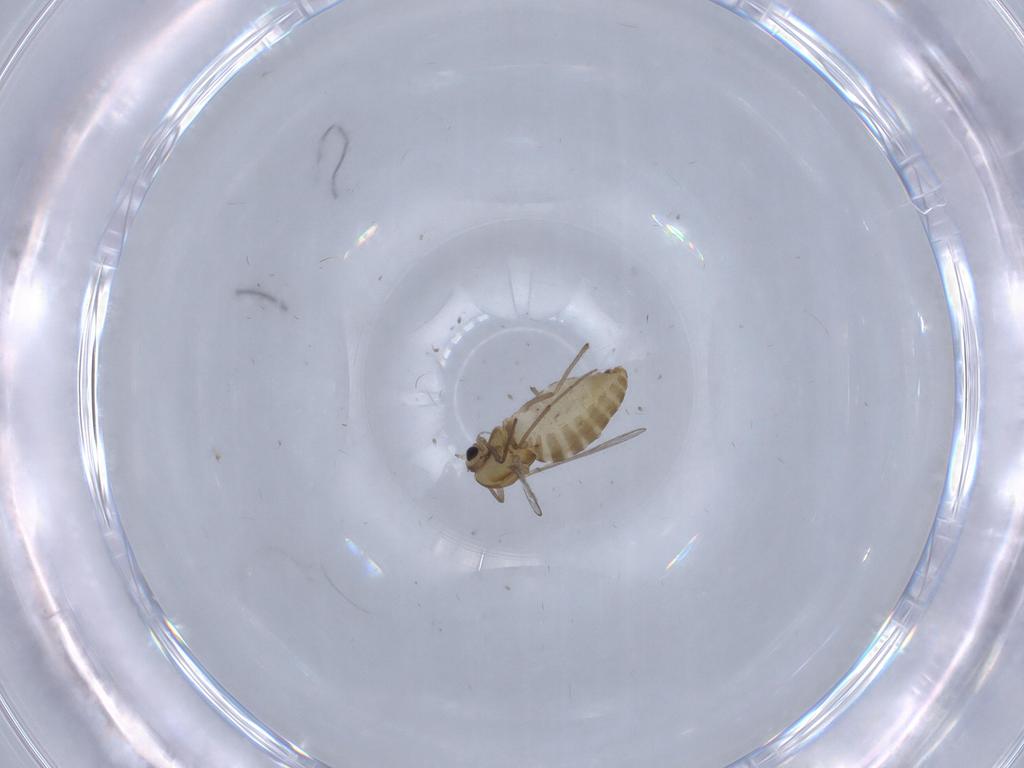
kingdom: Animalia
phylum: Arthropoda
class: Insecta
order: Diptera
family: Chironomidae
